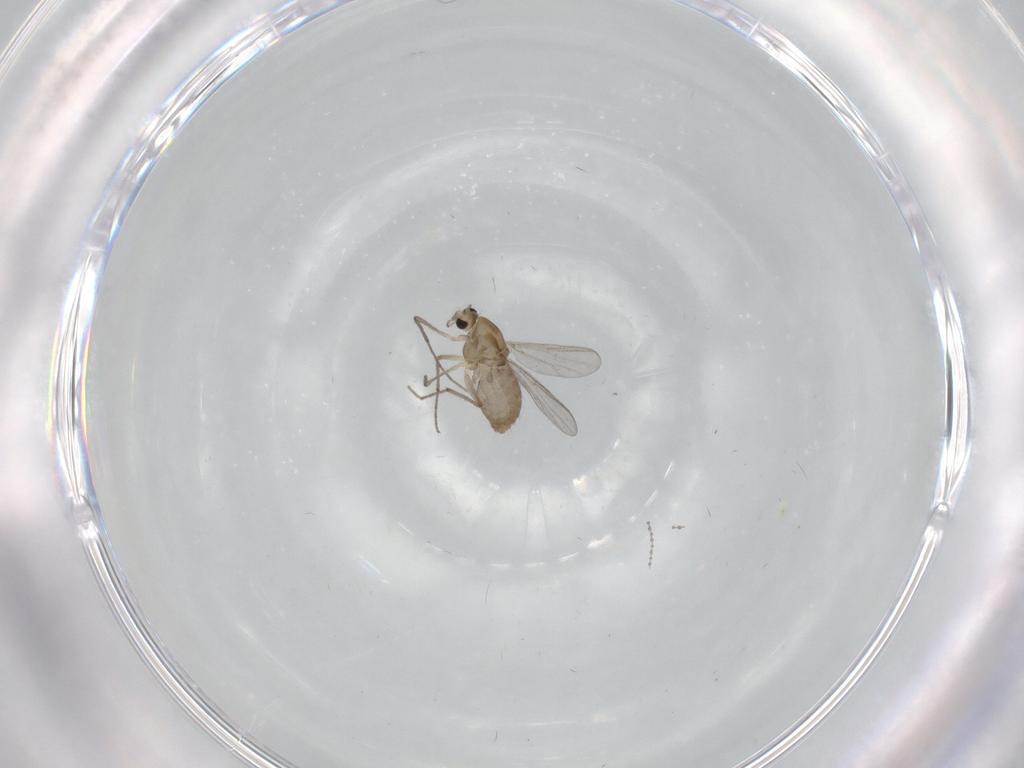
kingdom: Animalia
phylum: Arthropoda
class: Insecta
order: Diptera
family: Chironomidae
